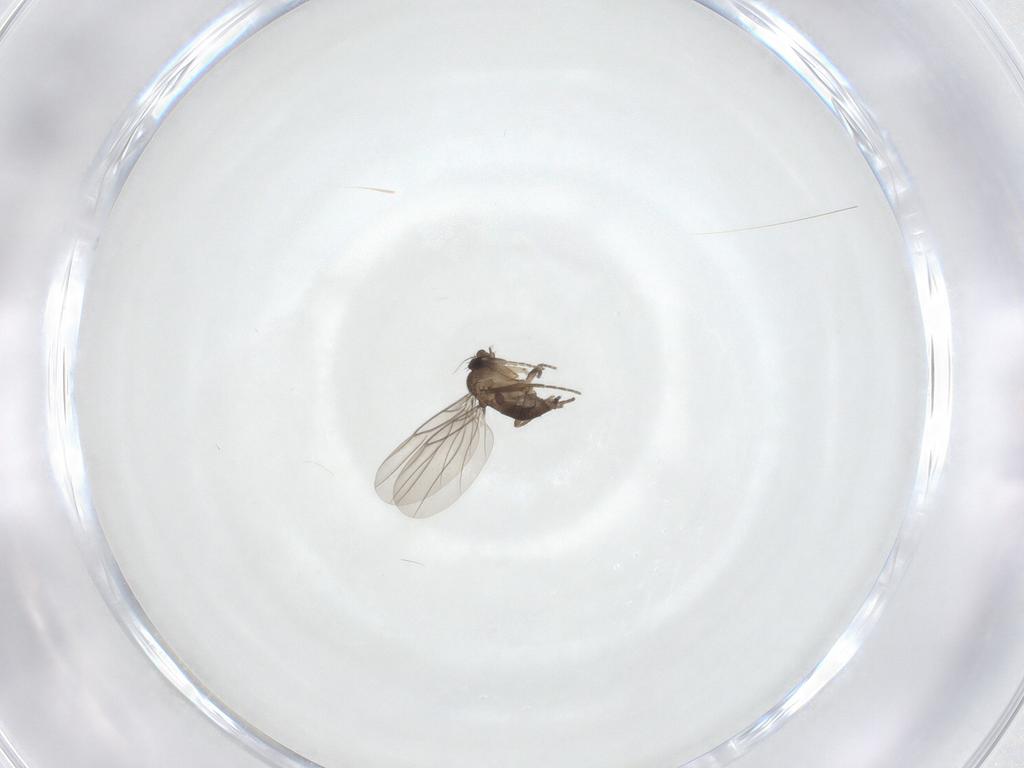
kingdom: Animalia
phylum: Arthropoda
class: Insecta
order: Diptera
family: Phoridae
